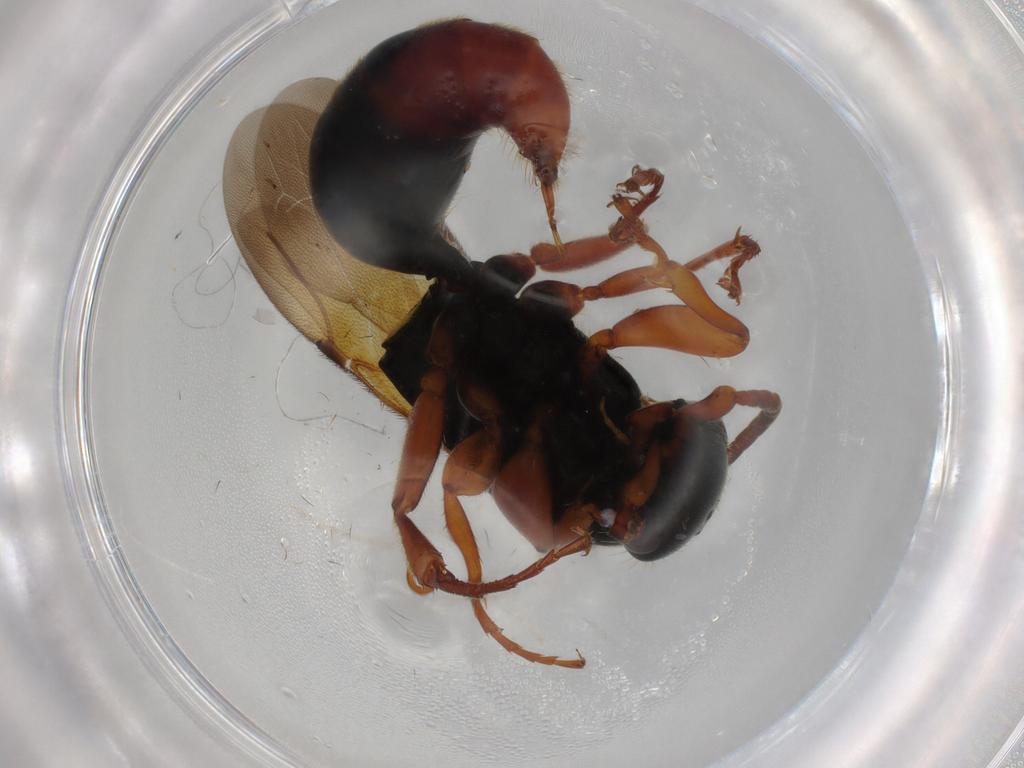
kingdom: Animalia
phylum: Arthropoda
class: Insecta
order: Hymenoptera
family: Bethylidae
